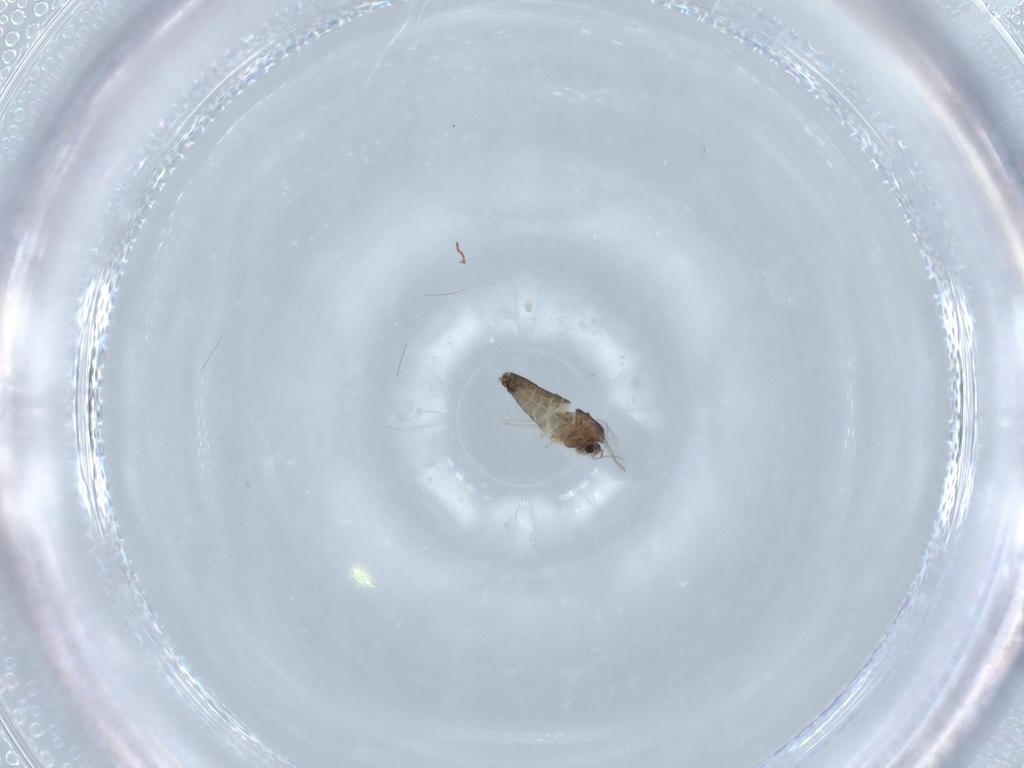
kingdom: Animalia
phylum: Arthropoda
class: Insecta
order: Diptera
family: Chironomidae
